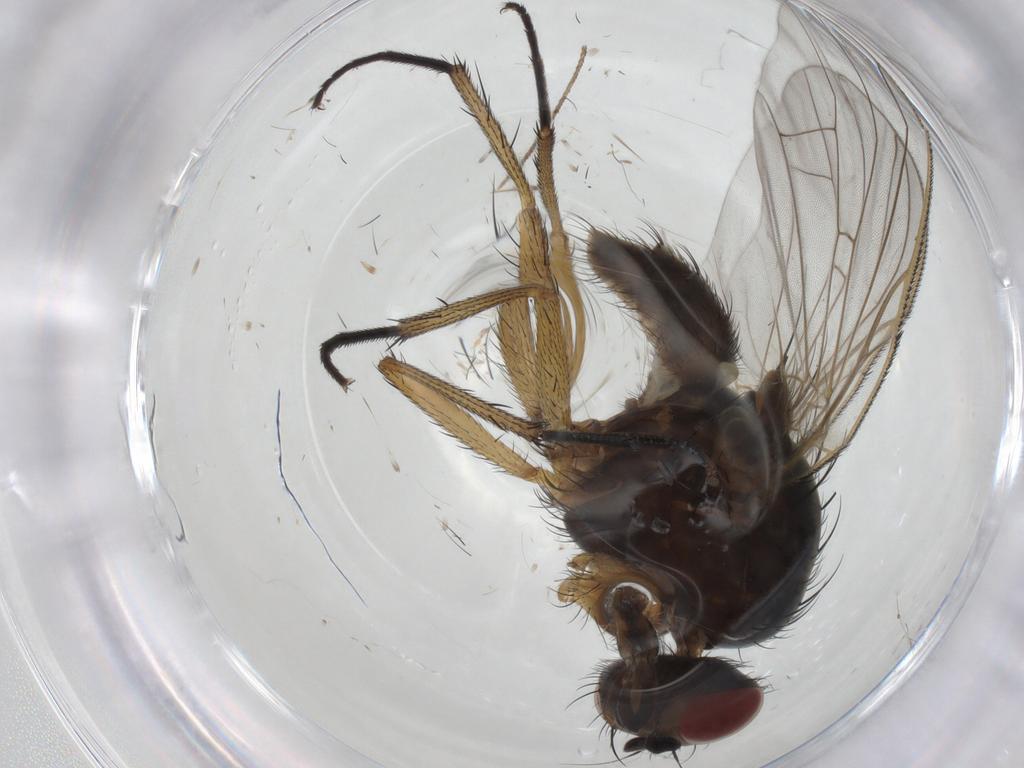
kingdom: Animalia
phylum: Arthropoda
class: Insecta
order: Diptera
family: Anthomyiidae
